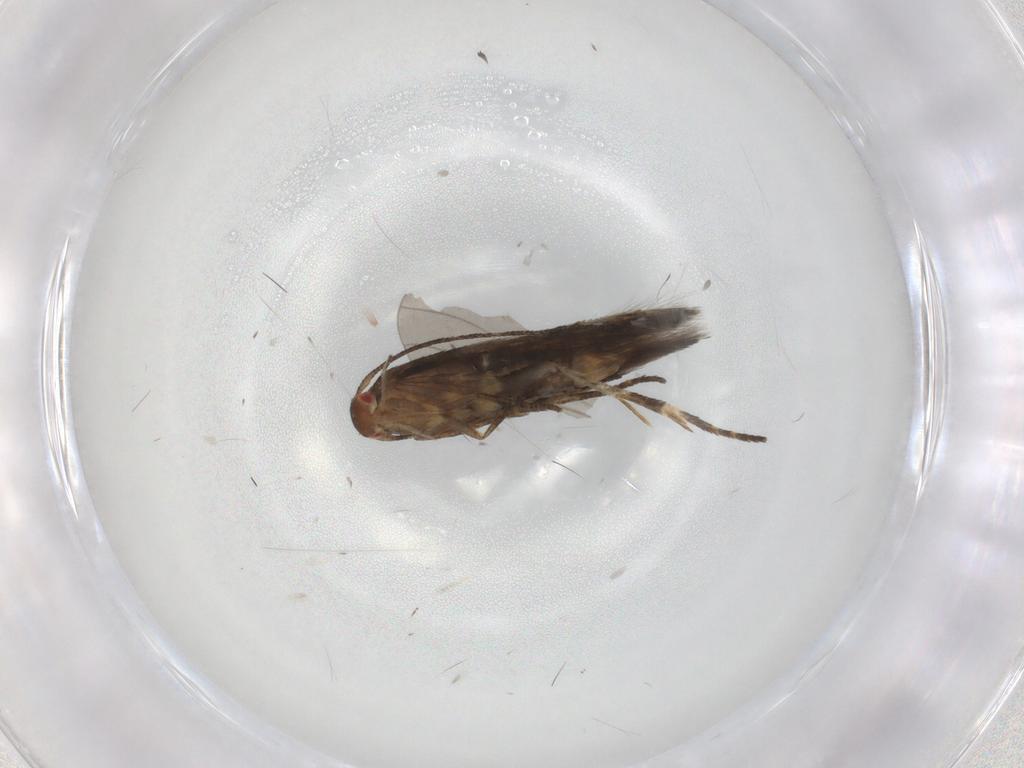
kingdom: Animalia
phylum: Arthropoda
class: Insecta
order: Lepidoptera
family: Momphidae
